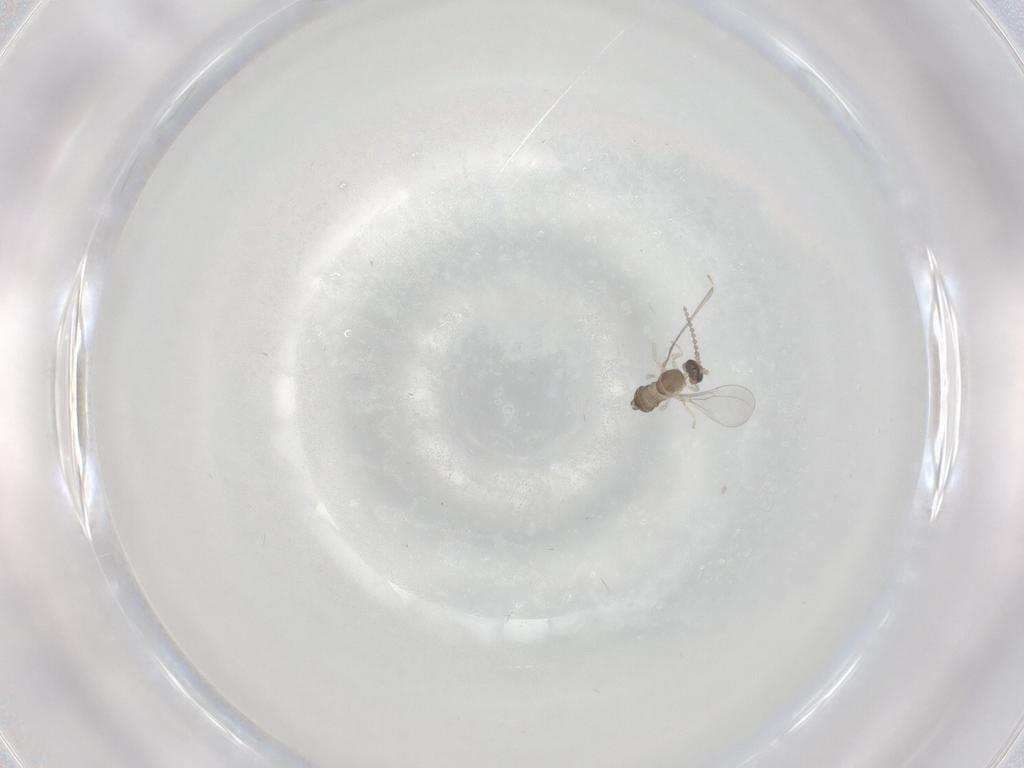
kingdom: Animalia
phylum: Arthropoda
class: Insecta
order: Diptera
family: Cecidomyiidae
